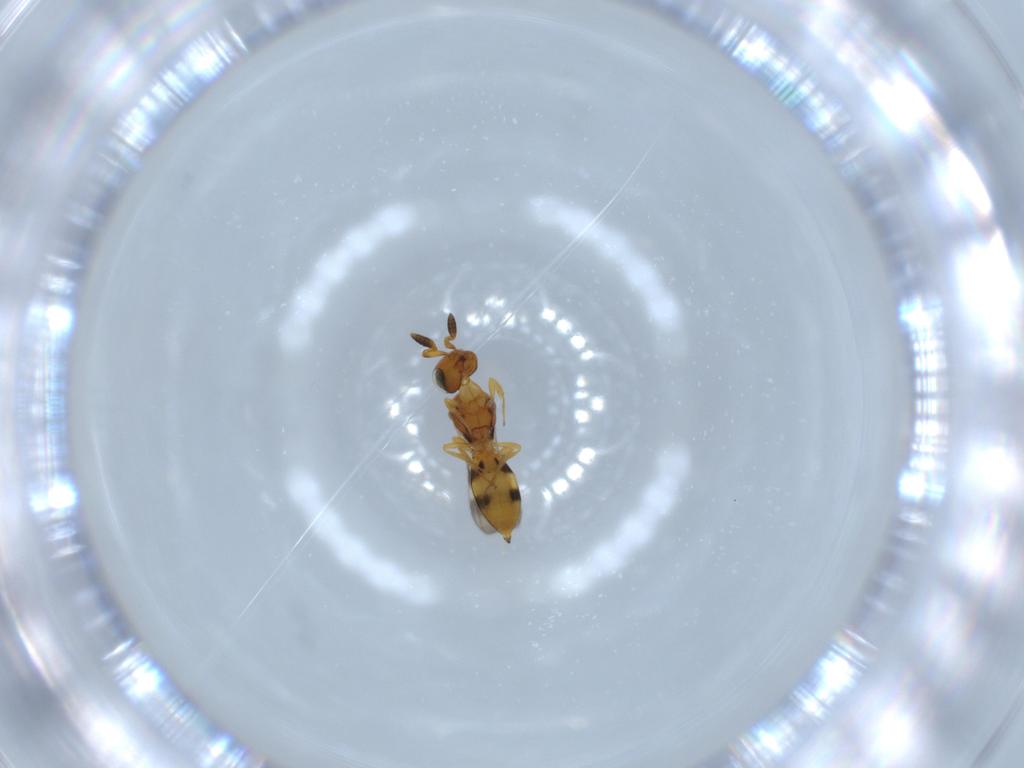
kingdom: Animalia
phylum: Arthropoda
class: Insecta
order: Hymenoptera
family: Scelionidae
